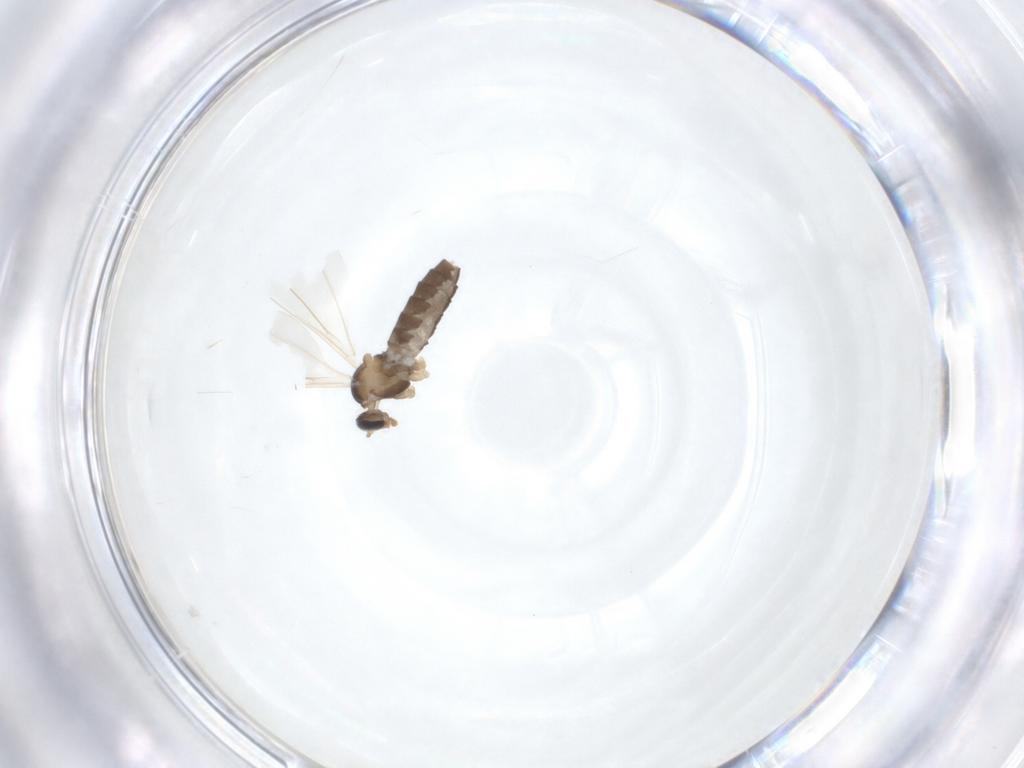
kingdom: Animalia
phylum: Arthropoda
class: Insecta
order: Diptera
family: Cecidomyiidae
